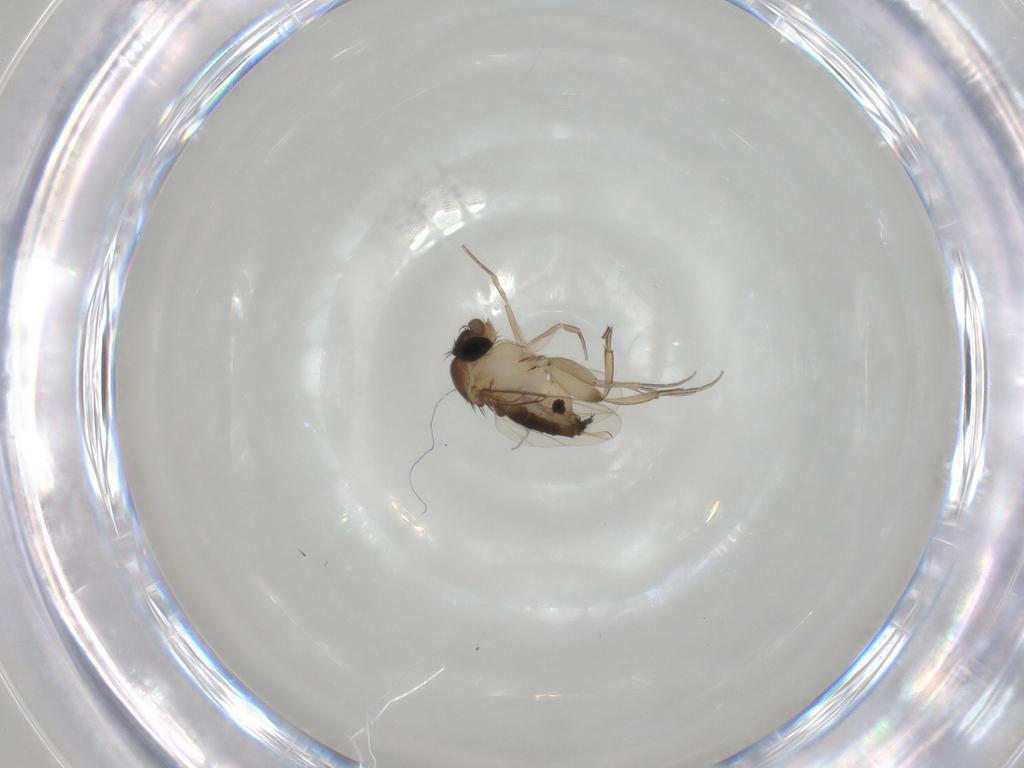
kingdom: Animalia
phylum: Arthropoda
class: Insecta
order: Diptera
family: Phoridae
